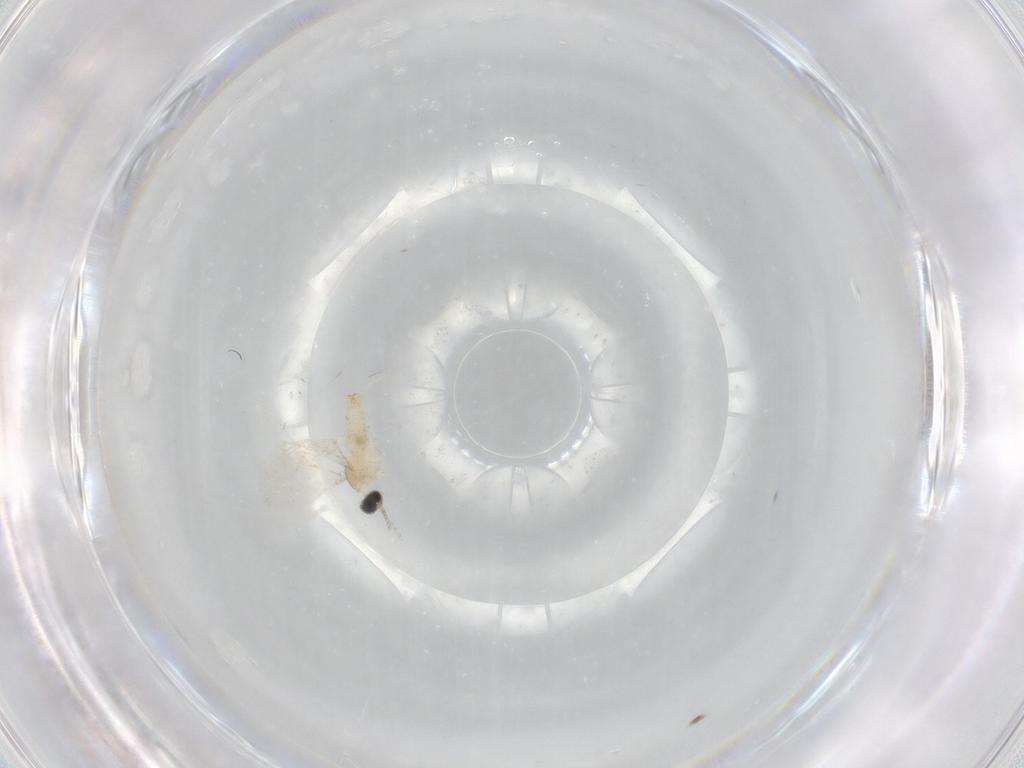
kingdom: Animalia
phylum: Arthropoda
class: Insecta
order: Diptera
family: Cecidomyiidae
